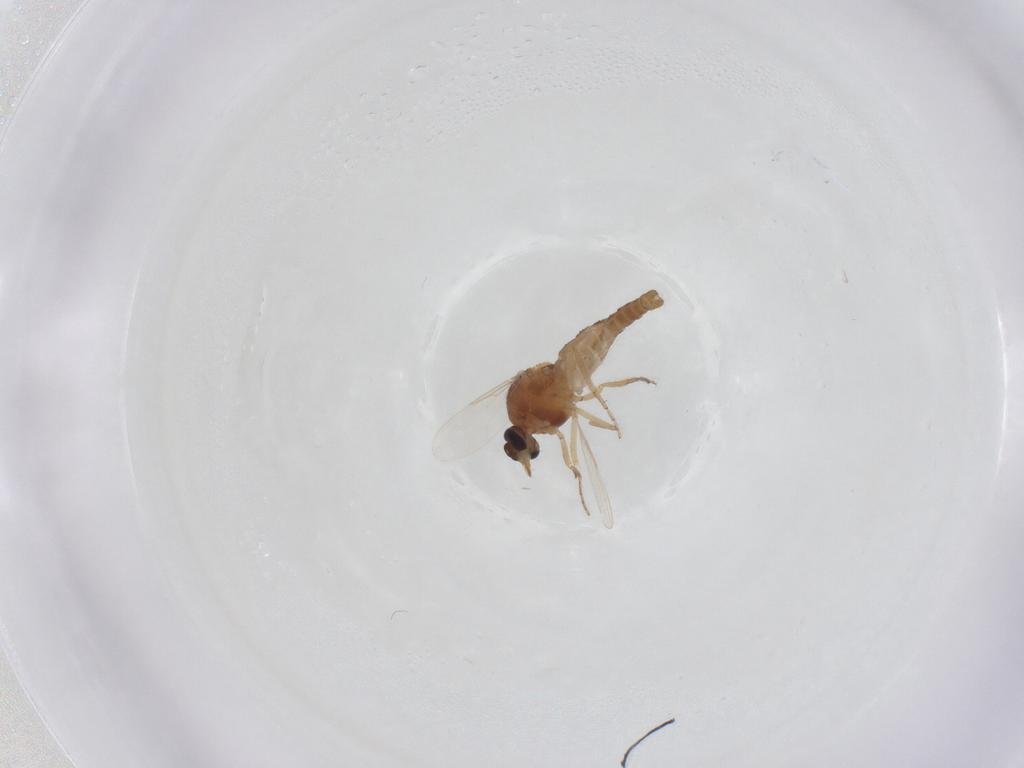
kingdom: Animalia
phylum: Arthropoda
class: Insecta
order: Diptera
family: Ceratopogonidae
